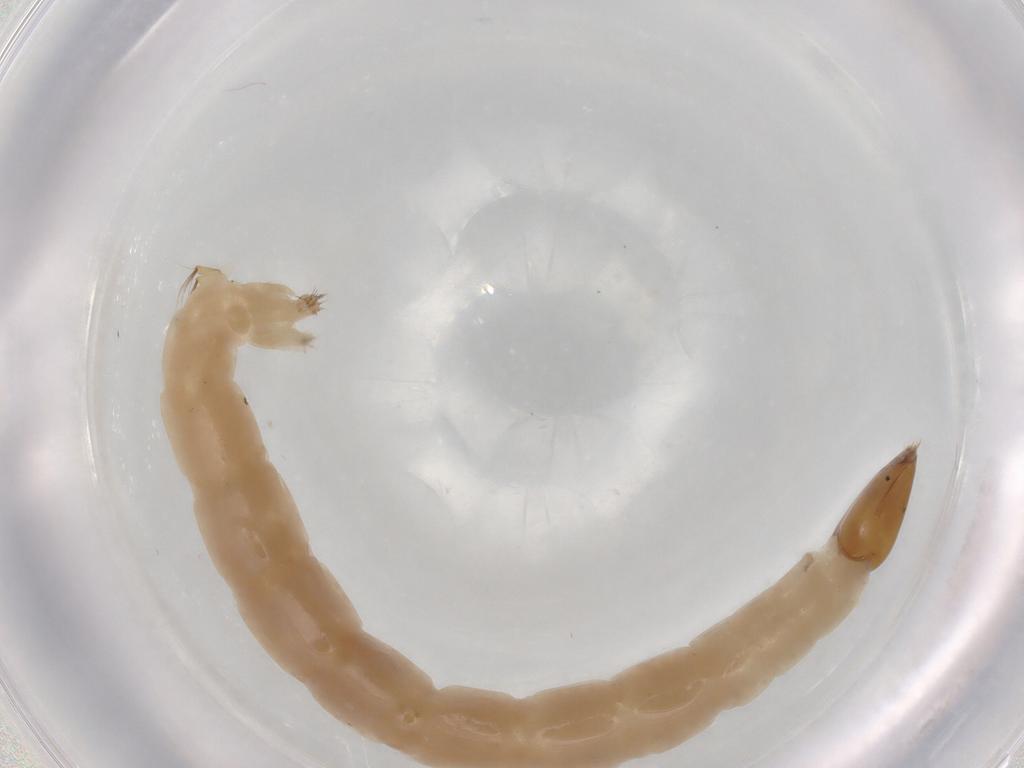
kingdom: Animalia
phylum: Arthropoda
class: Insecta
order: Diptera
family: Chironomidae
